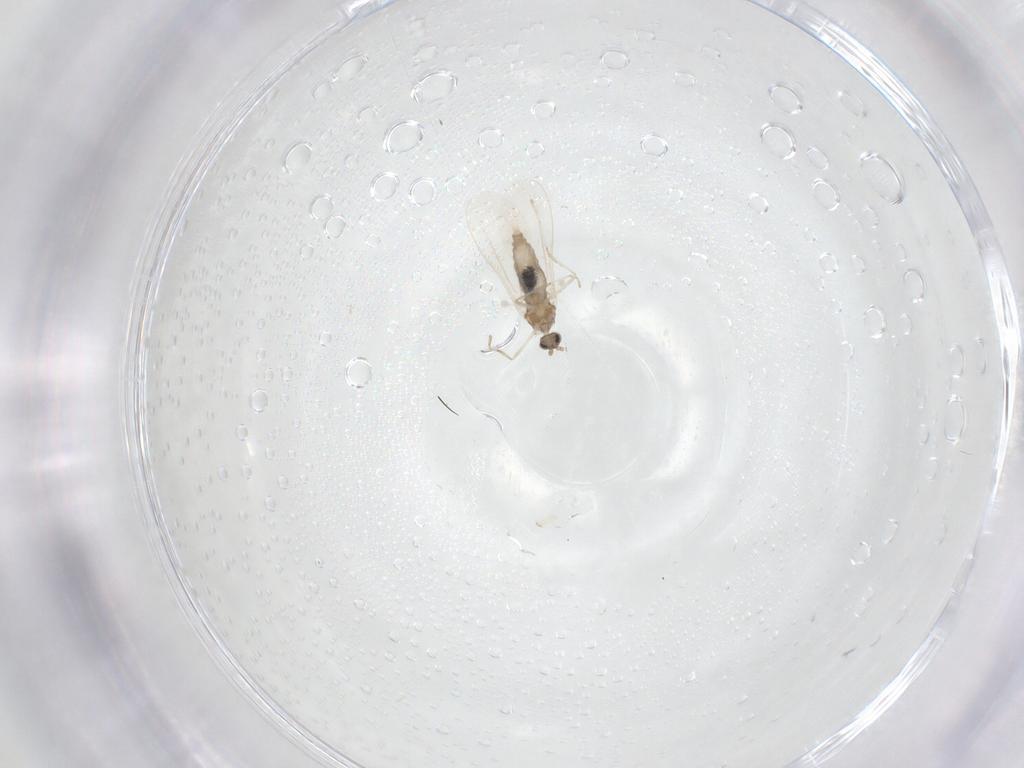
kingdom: Animalia
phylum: Arthropoda
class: Insecta
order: Diptera
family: Cecidomyiidae
